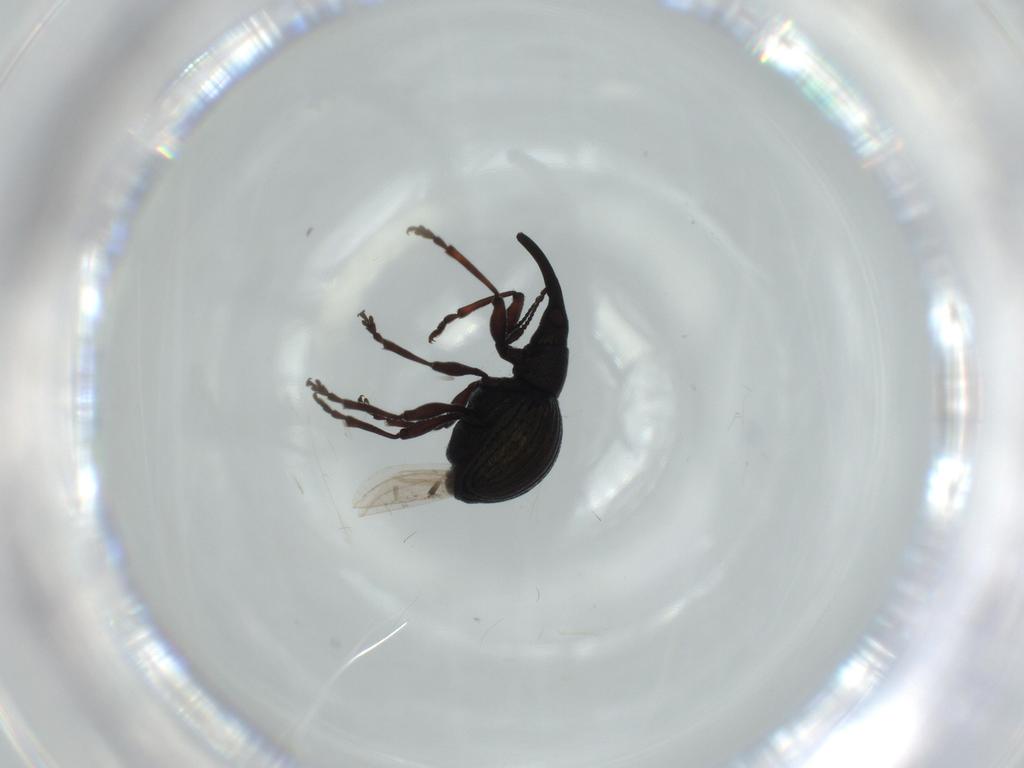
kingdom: Animalia
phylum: Arthropoda
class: Insecta
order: Coleoptera
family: Brentidae
